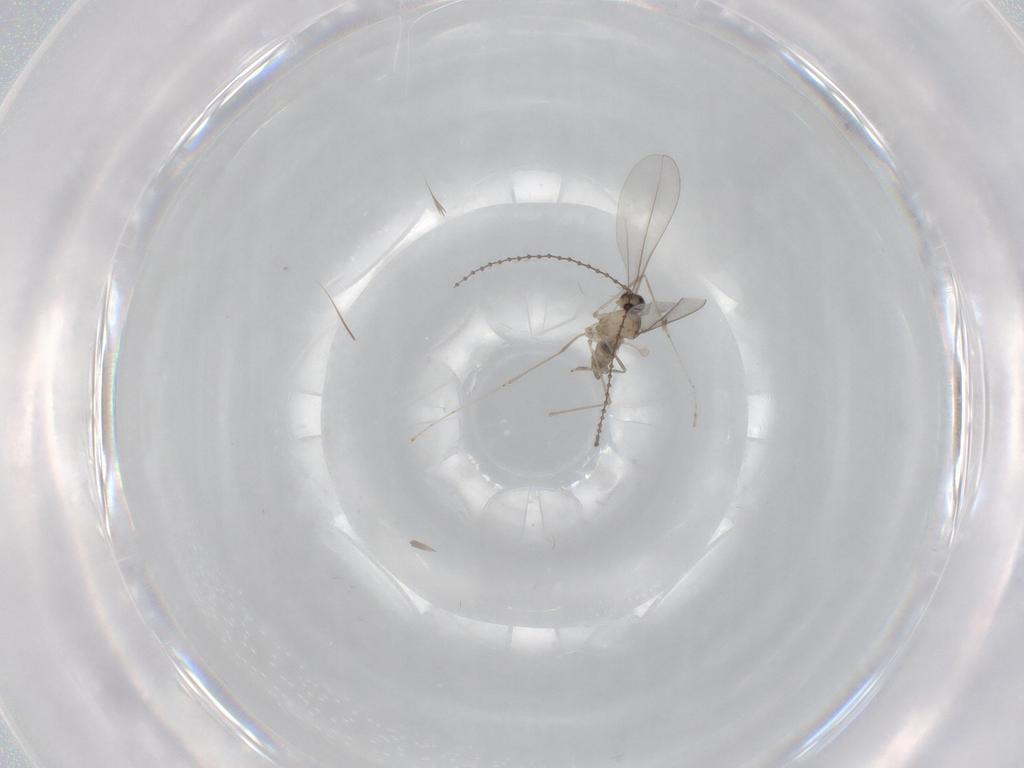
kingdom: Animalia
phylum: Arthropoda
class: Insecta
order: Diptera
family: Cecidomyiidae
